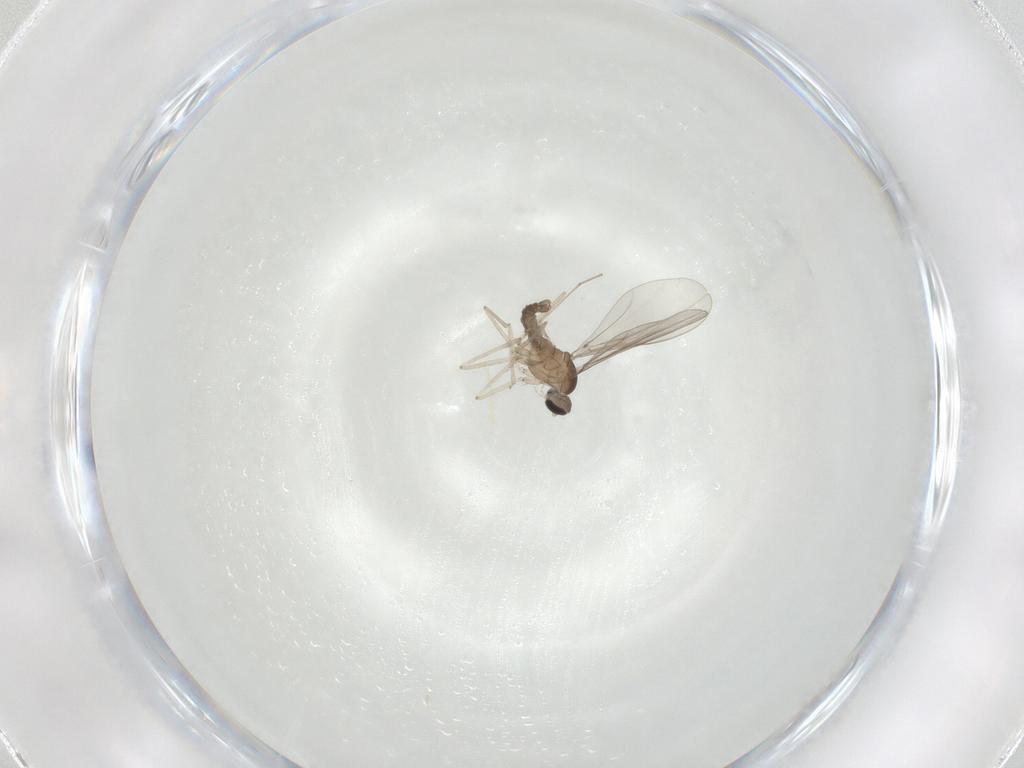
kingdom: Animalia
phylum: Arthropoda
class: Insecta
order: Diptera
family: Cecidomyiidae
